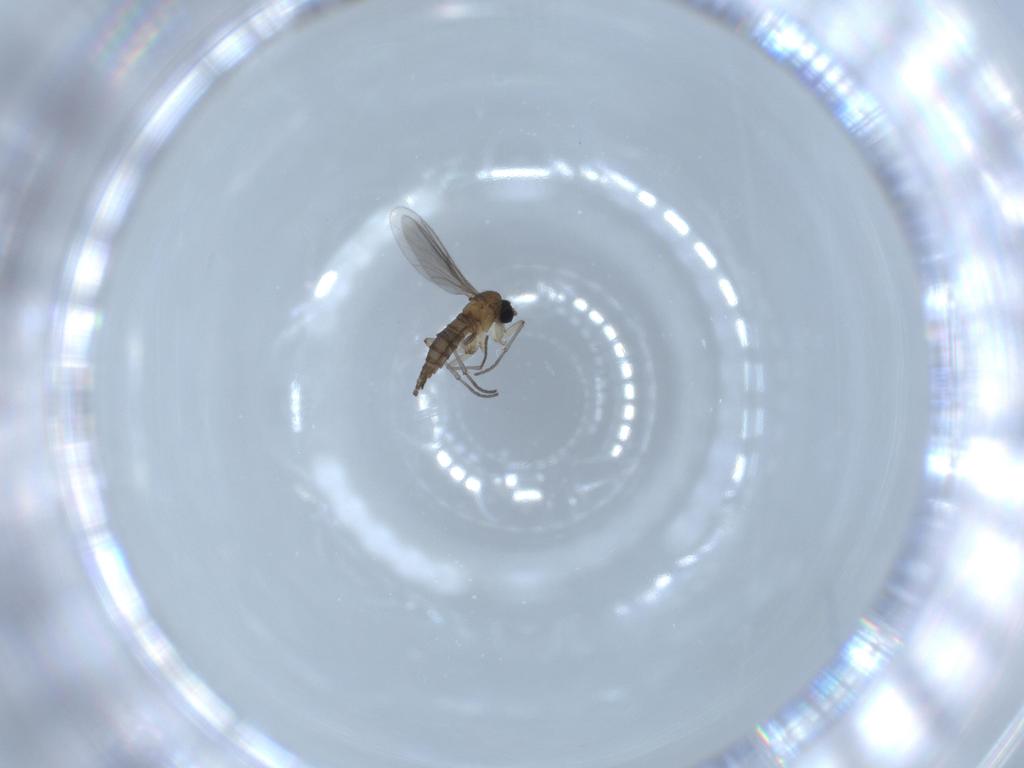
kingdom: Animalia
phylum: Arthropoda
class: Insecta
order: Diptera
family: Sciaridae
